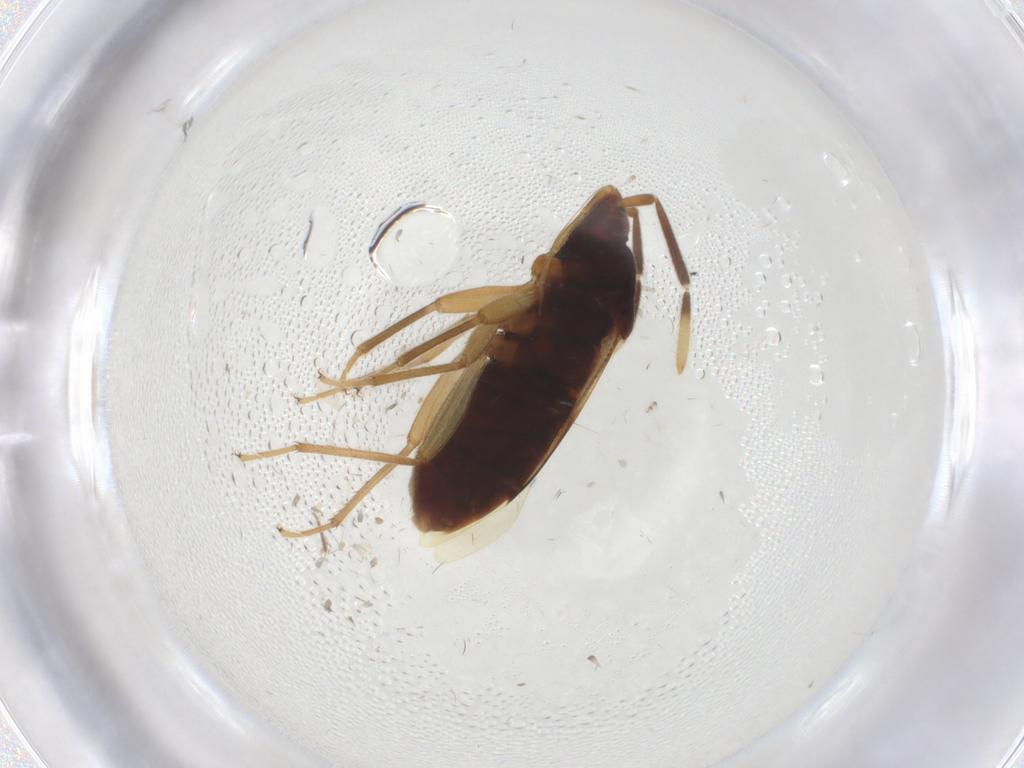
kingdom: Animalia
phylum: Arthropoda
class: Insecta
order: Hemiptera
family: Rhyparochromidae
